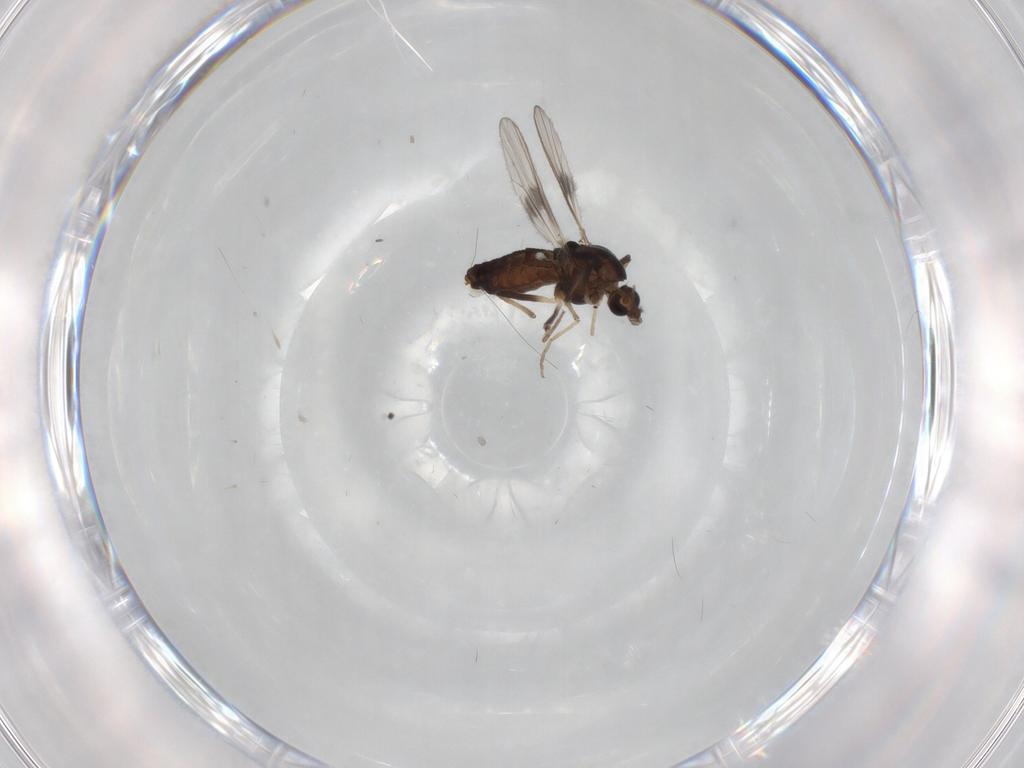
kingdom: Animalia
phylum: Arthropoda
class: Insecta
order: Diptera
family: Chironomidae
